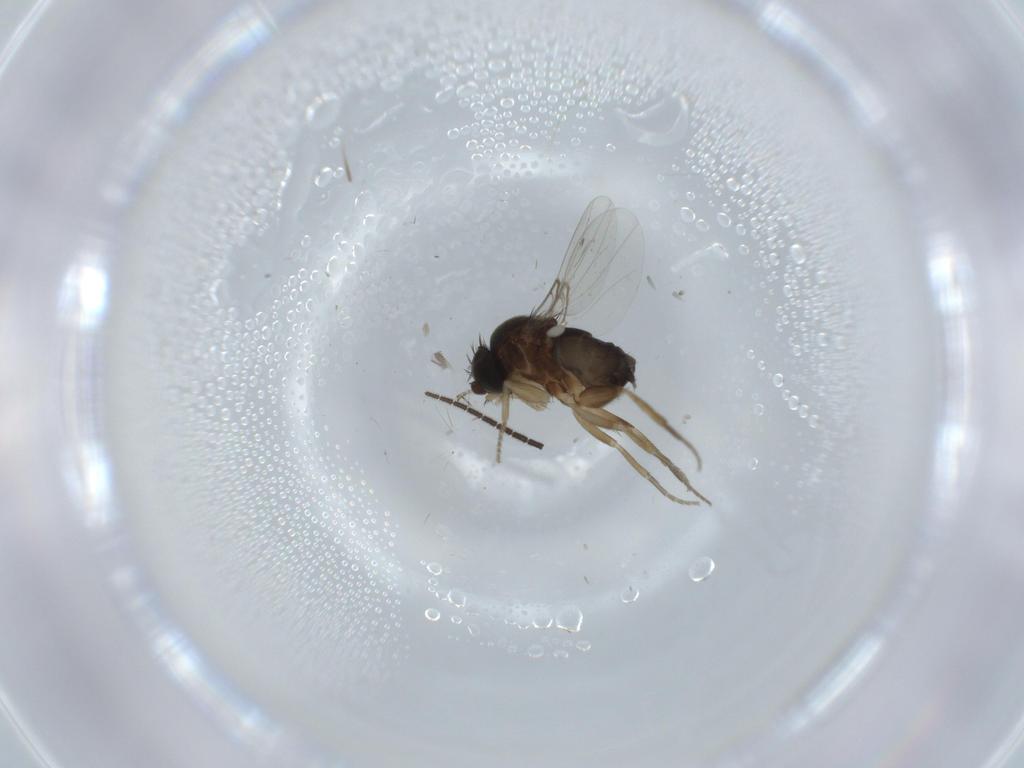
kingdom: Animalia
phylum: Arthropoda
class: Insecta
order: Diptera
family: Sciaridae
